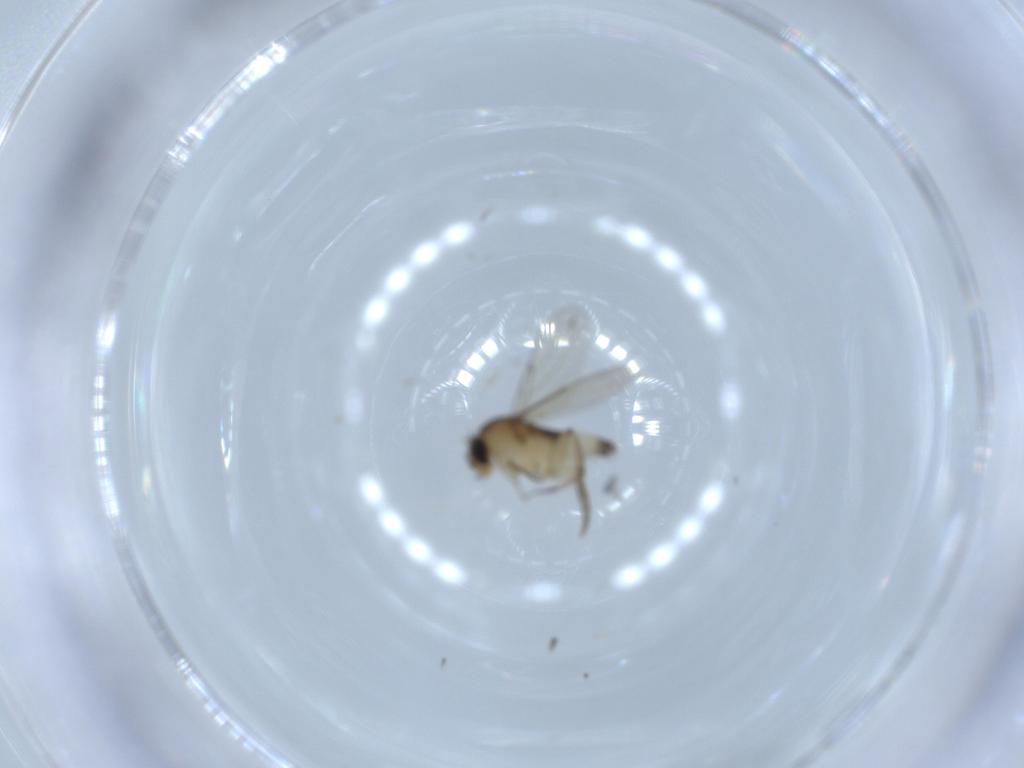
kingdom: Animalia
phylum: Arthropoda
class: Insecta
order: Diptera
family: Phoridae
